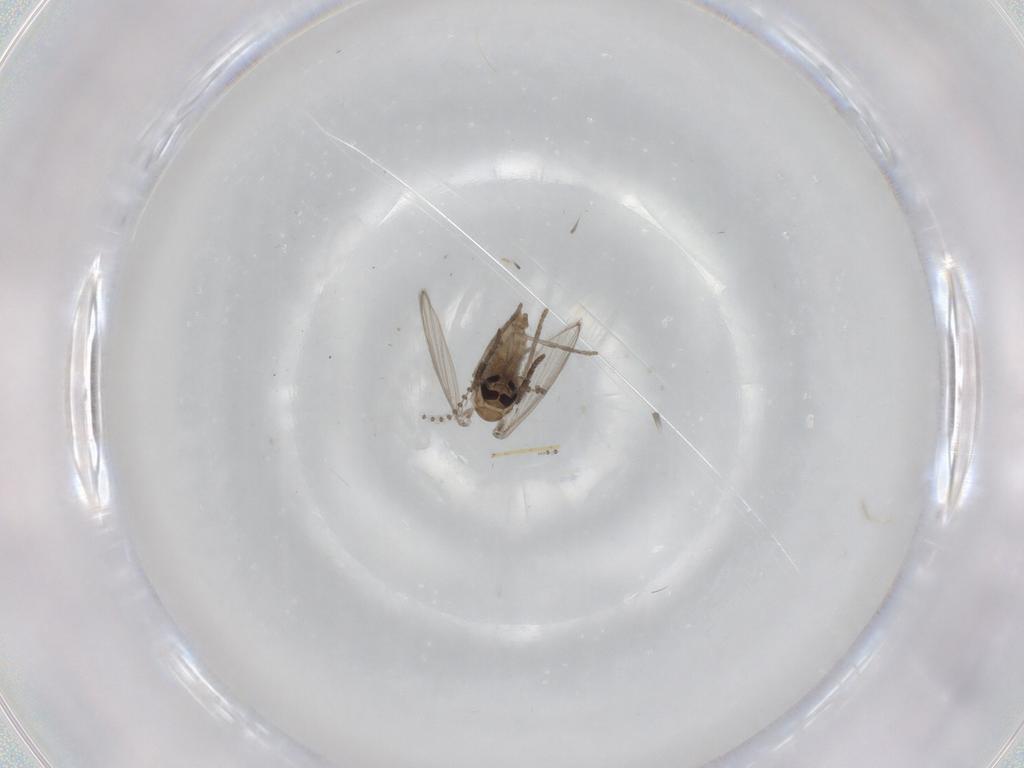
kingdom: Animalia
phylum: Arthropoda
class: Insecta
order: Diptera
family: Psychodidae
